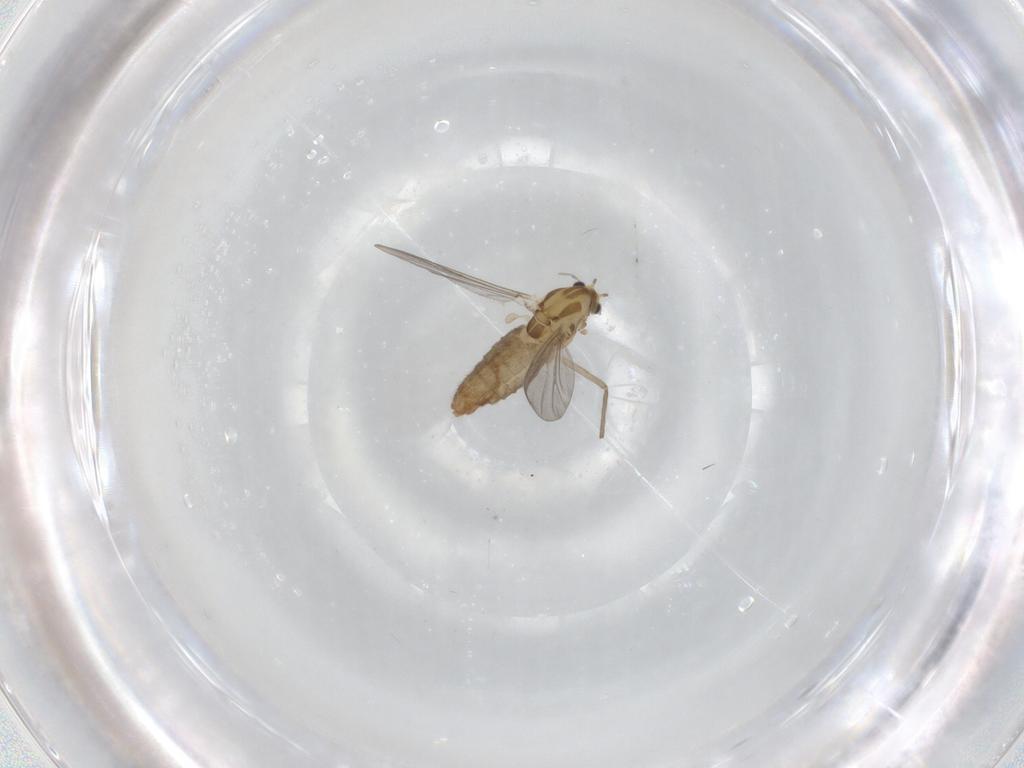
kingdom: Animalia
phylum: Arthropoda
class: Insecta
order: Diptera
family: Chironomidae
